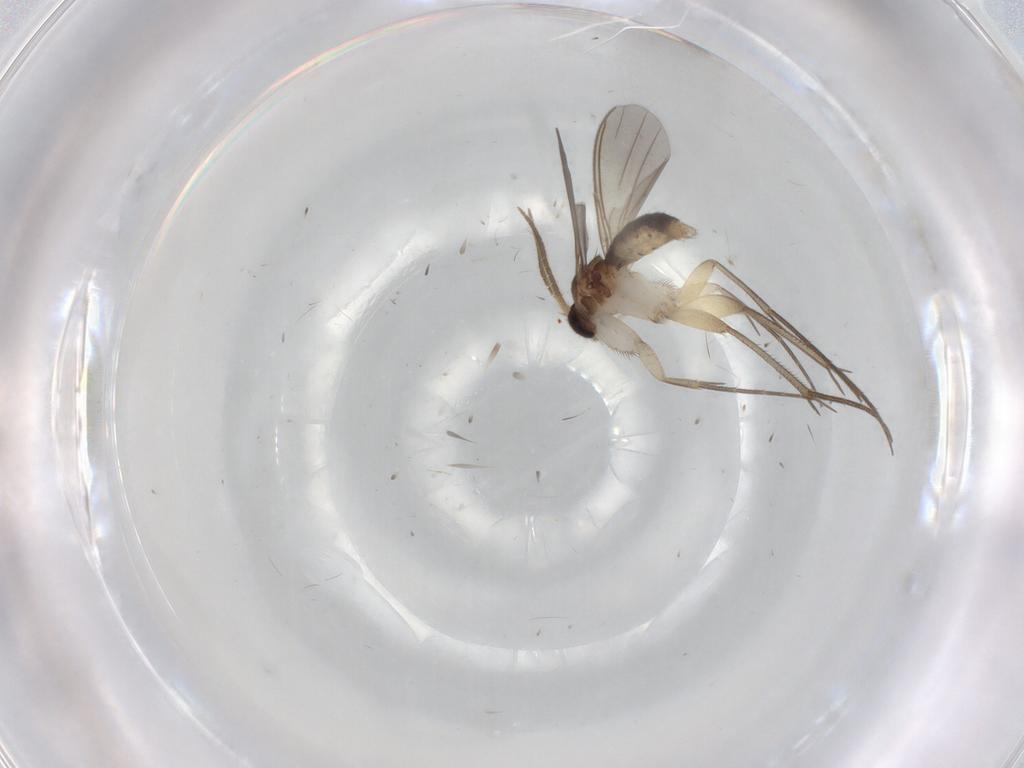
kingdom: Animalia
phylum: Arthropoda
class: Insecta
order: Diptera
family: Mycetophilidae
